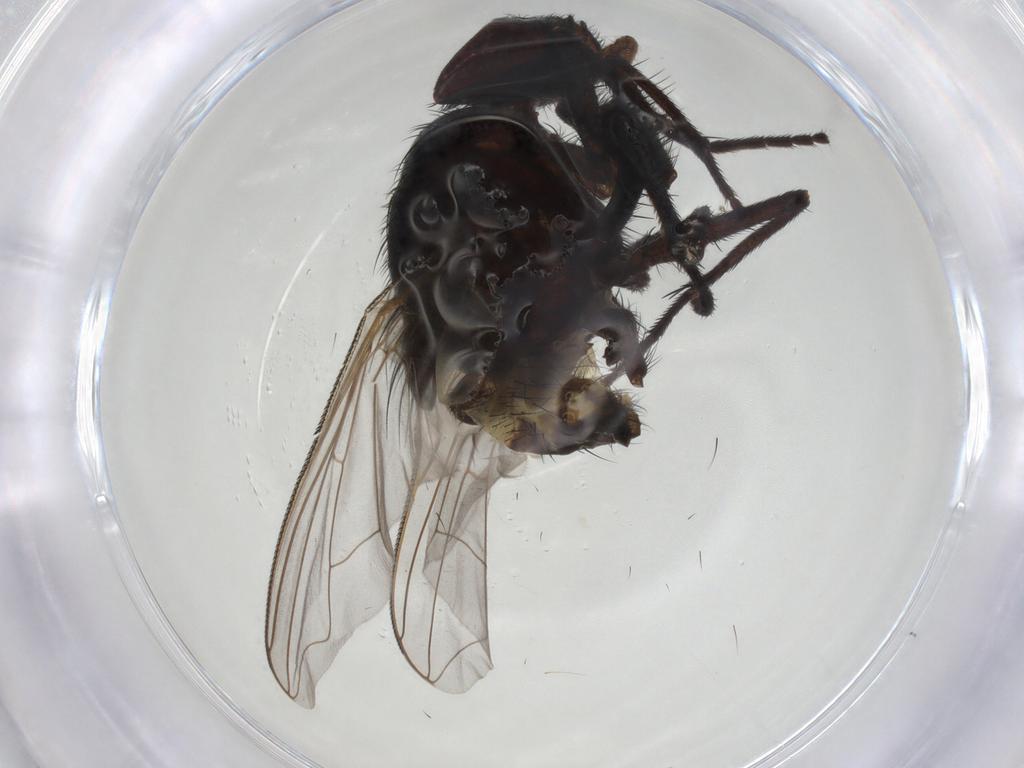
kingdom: Animalia
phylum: Arthropoda
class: Insecta
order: Diptera
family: Muscidae
